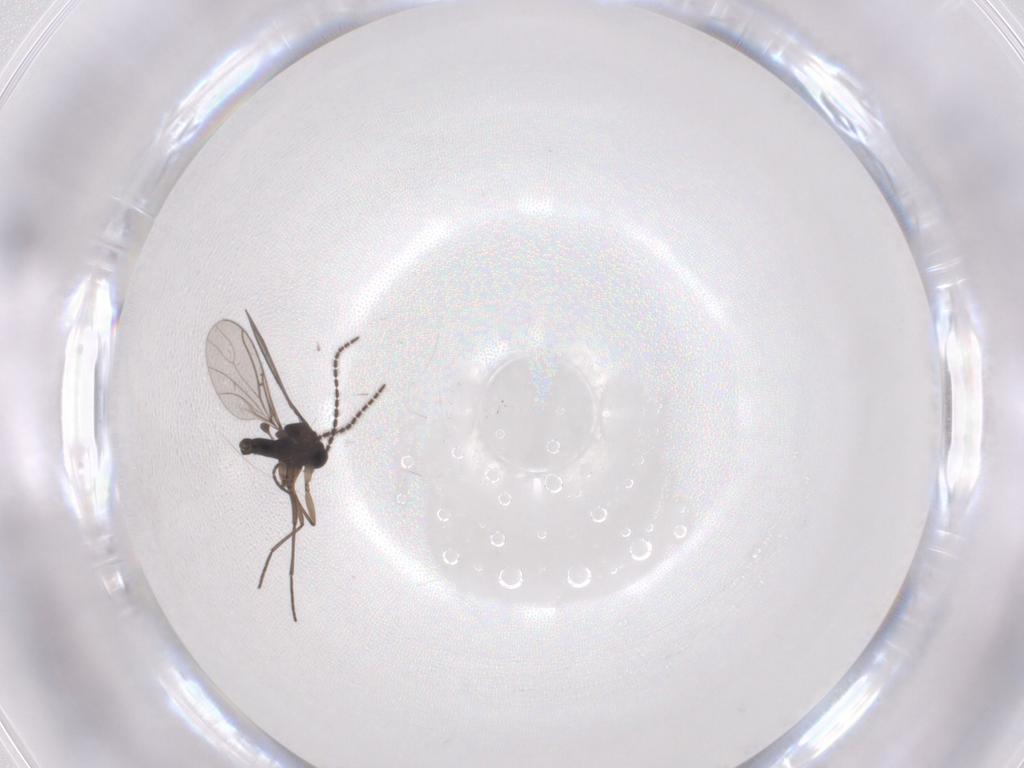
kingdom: Animalia
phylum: Arthropoda
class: Insecta
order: Diptera
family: Sciaridae
